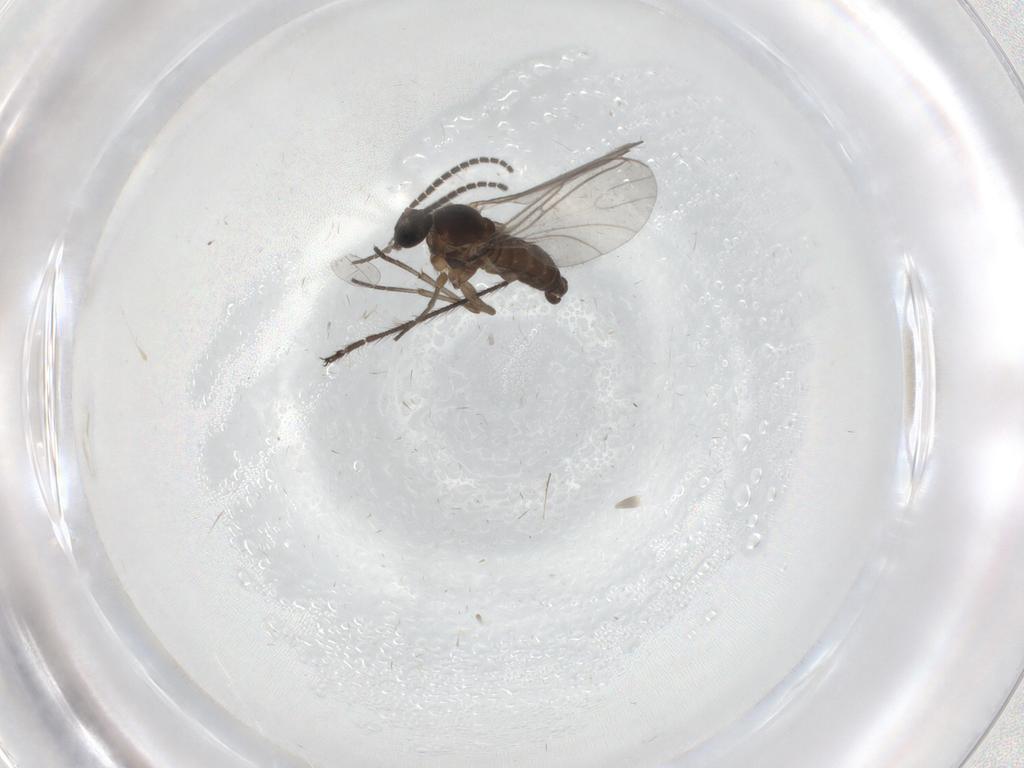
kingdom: Animalia
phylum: Arthropoda
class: Insecta
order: Diptera
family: Sciaridae
